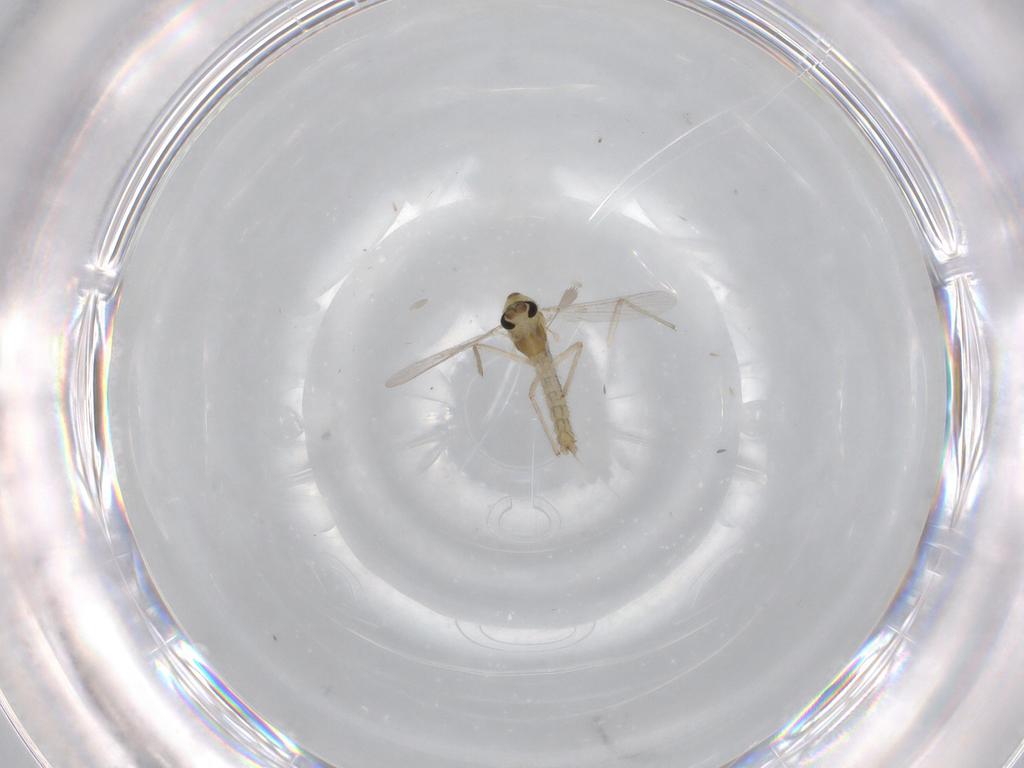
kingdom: Animalia
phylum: Arthropoda
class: Insecta
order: Diptera
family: Chironomidae
